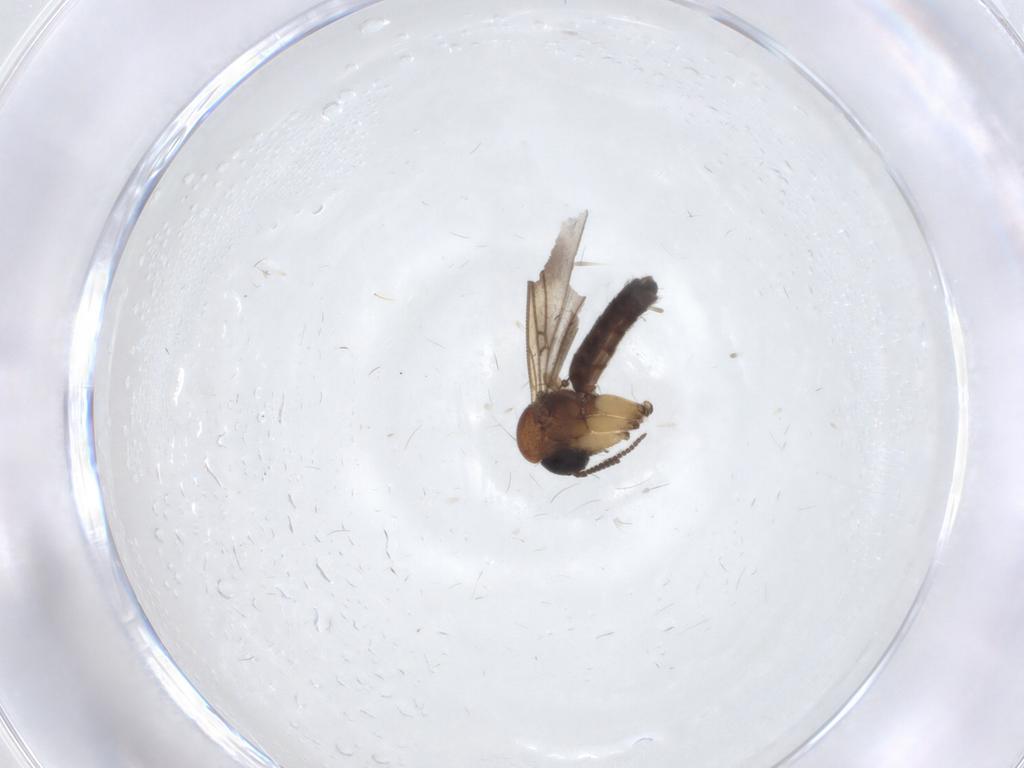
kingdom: Animalia
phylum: Arthropoda
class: Insecta
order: Diptera
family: Mycetophilidae
